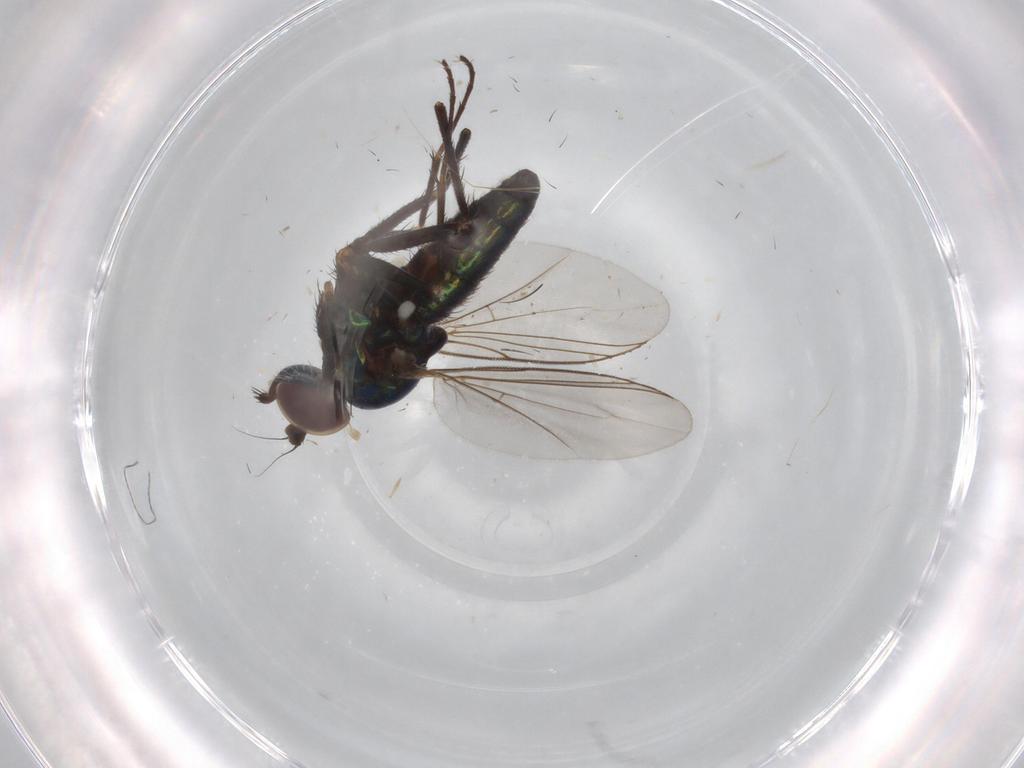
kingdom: Animalia
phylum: Arthropoda
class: Insecta
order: Diptera
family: Dolichopodidae
